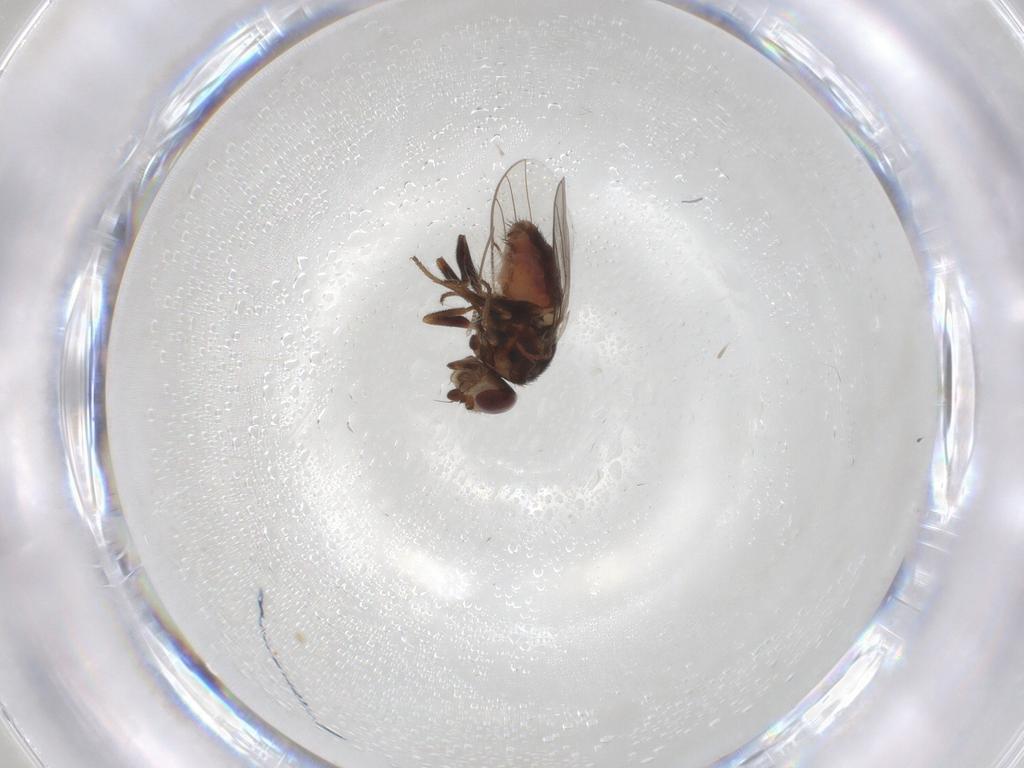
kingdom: Animalia
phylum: Arthropoda
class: Insecta
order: Diptera
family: Chloropidae
